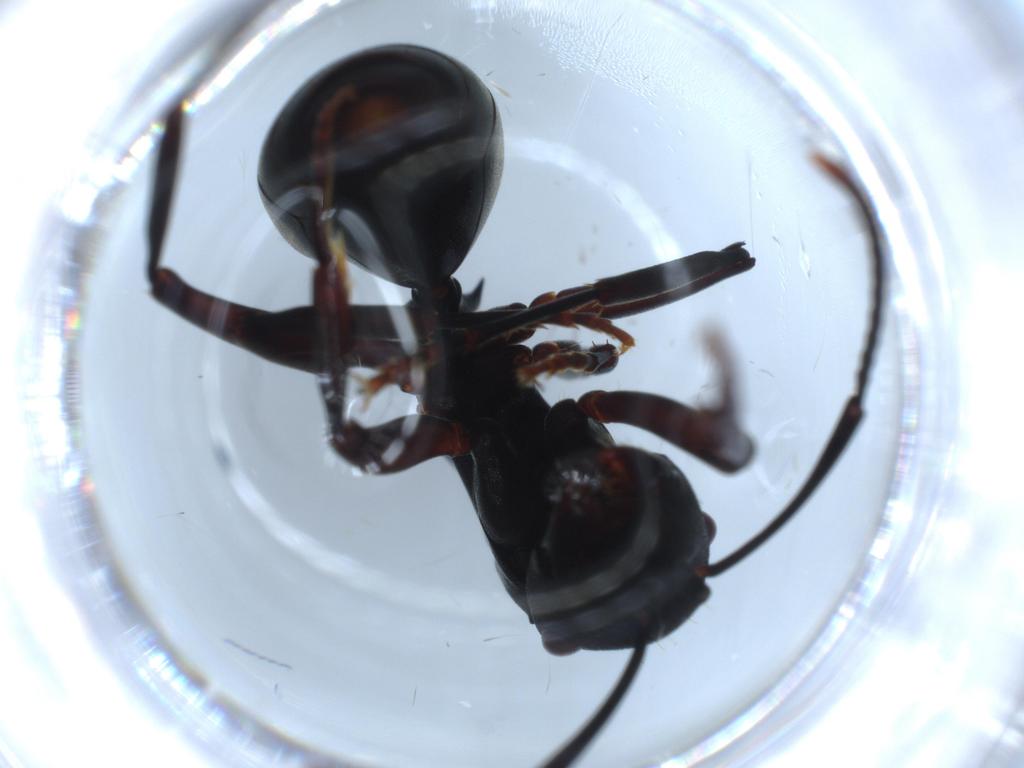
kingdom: Animalia
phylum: Arthropoda
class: Insecta
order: Hymenoptera
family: Formicidae
